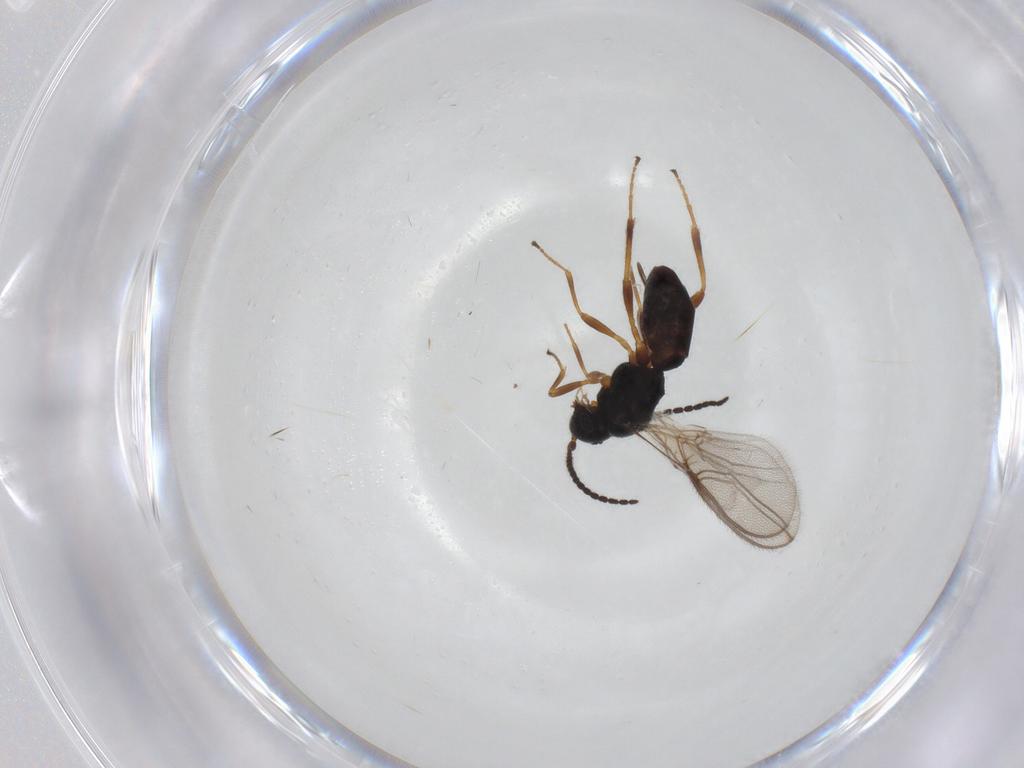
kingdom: Animalia
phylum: Arthropoda
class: Insecta
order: Hymenoptera
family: Braconidae
